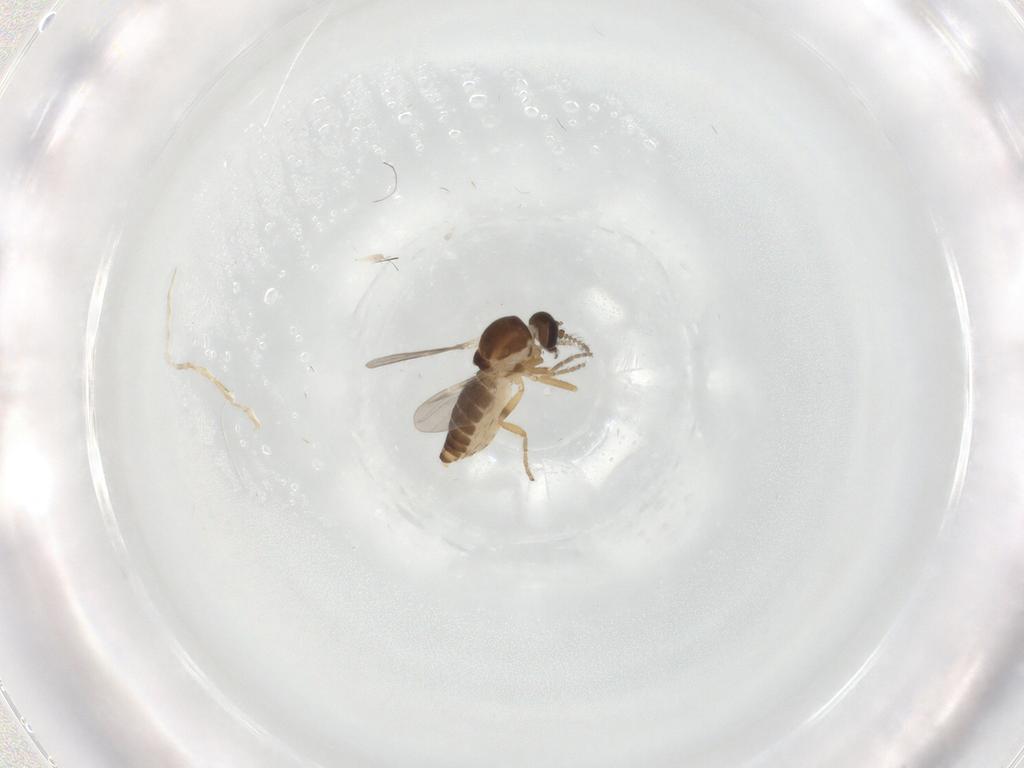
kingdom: Animalia
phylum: Arthropoda
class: Insecta
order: Diptera
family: Ceratopogonidae
